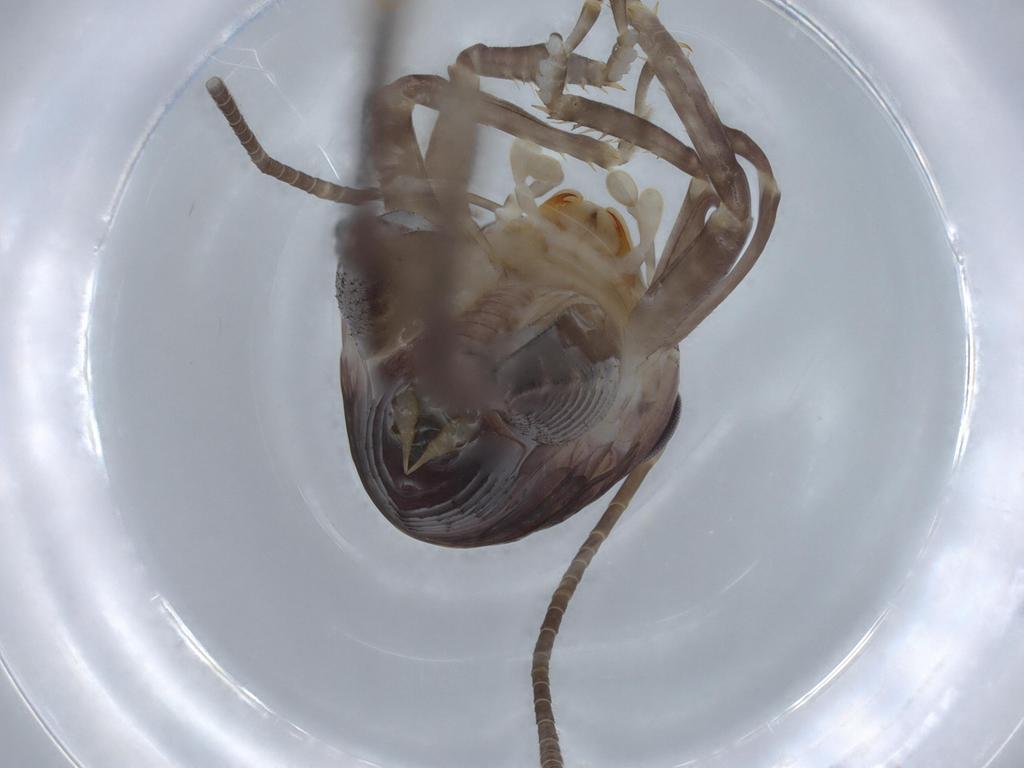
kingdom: Animalia
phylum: Arthropoda
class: Insecta
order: Orthoptera
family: Anostostomatidae
